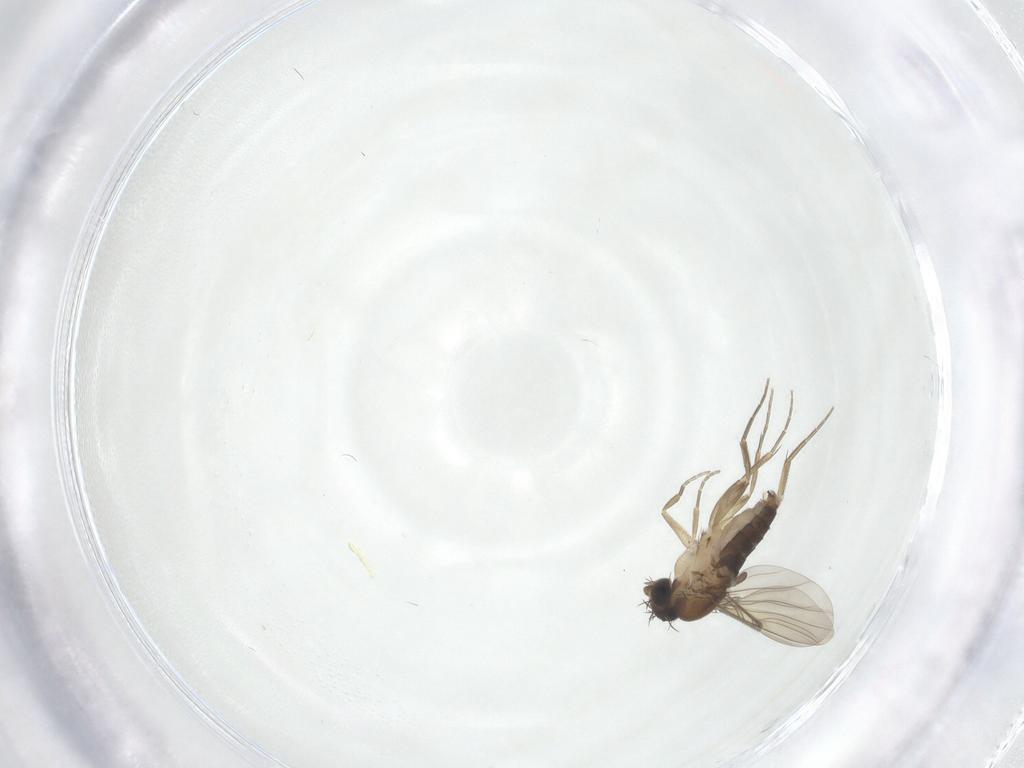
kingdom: Animalia
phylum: Arthropoda
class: Insecta
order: Diptera
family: Phoridae
